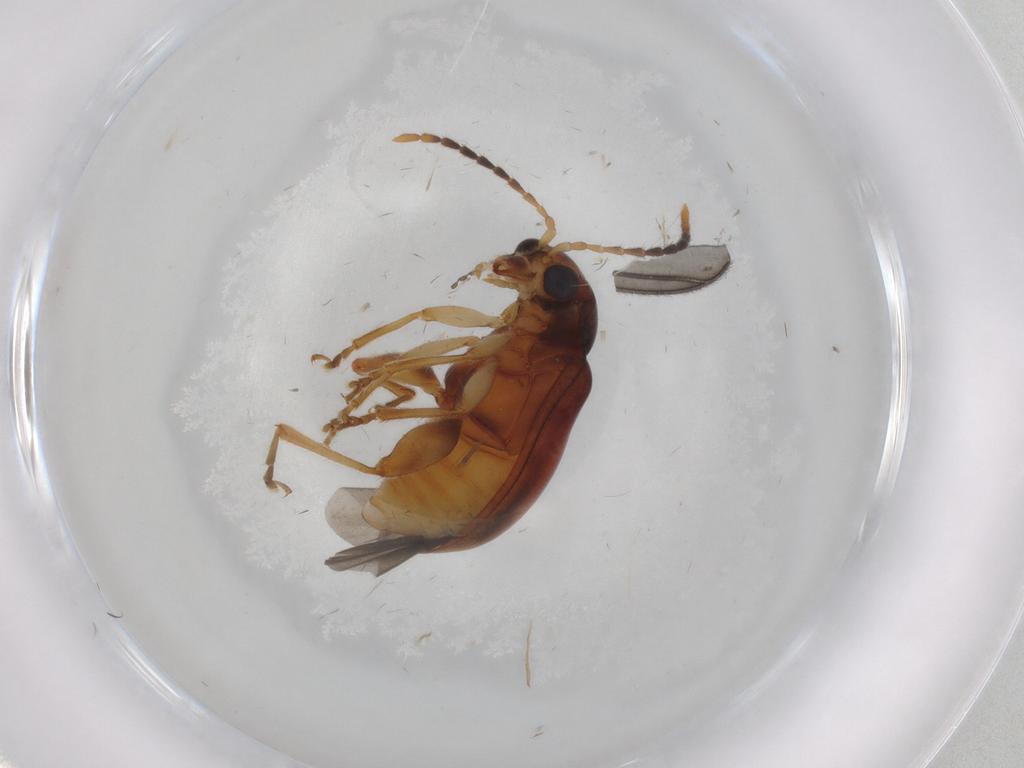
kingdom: Animalia
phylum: Arthropoda
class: Insecta
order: Coleoptera
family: Chrysomelidae
